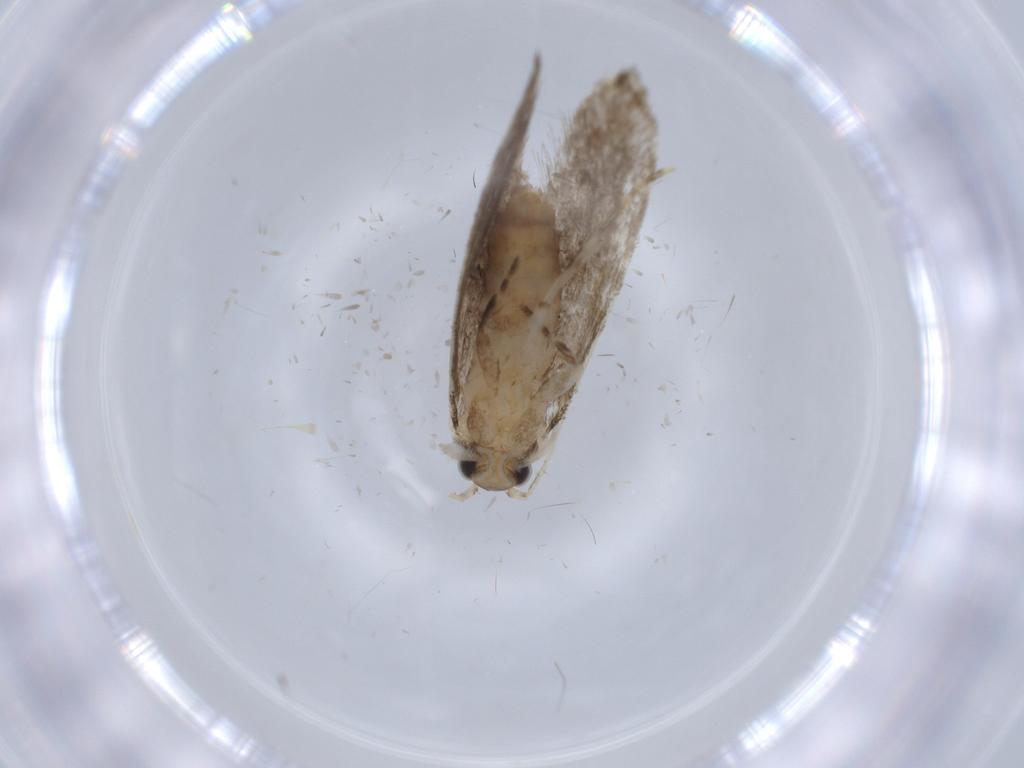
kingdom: Animalia
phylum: Arthropoda
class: Insecta
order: Lepidoptera
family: Tineidae
